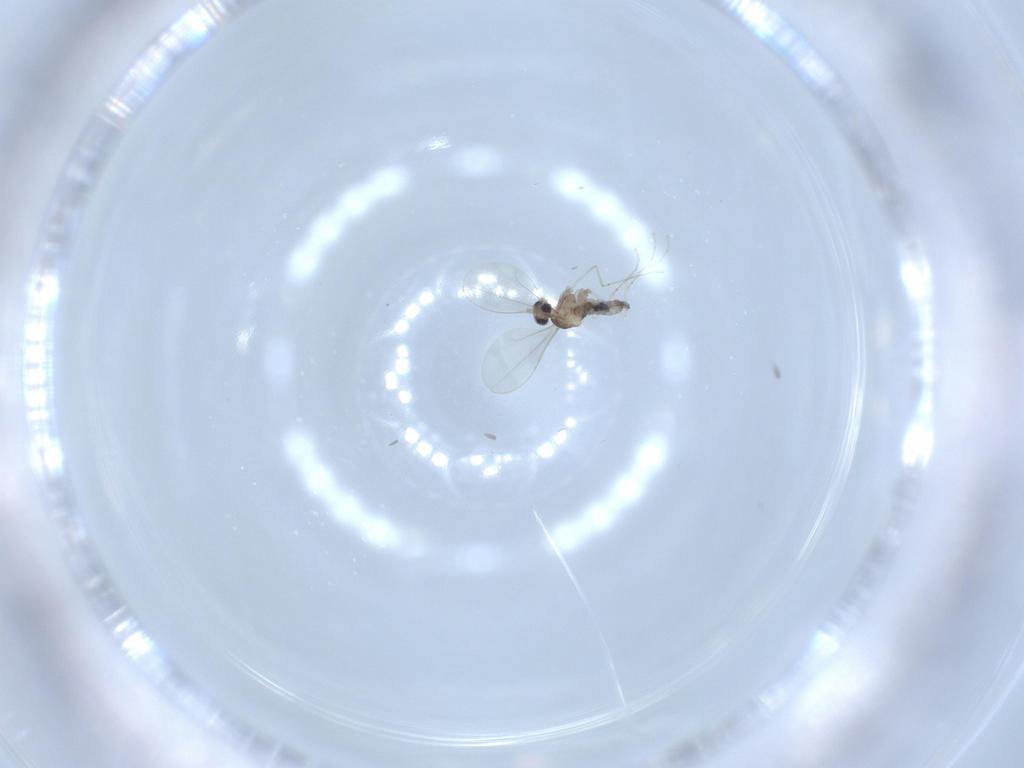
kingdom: Animalia
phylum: Arthropoda
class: Insecta
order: Diptera
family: Cecidomyiidae
